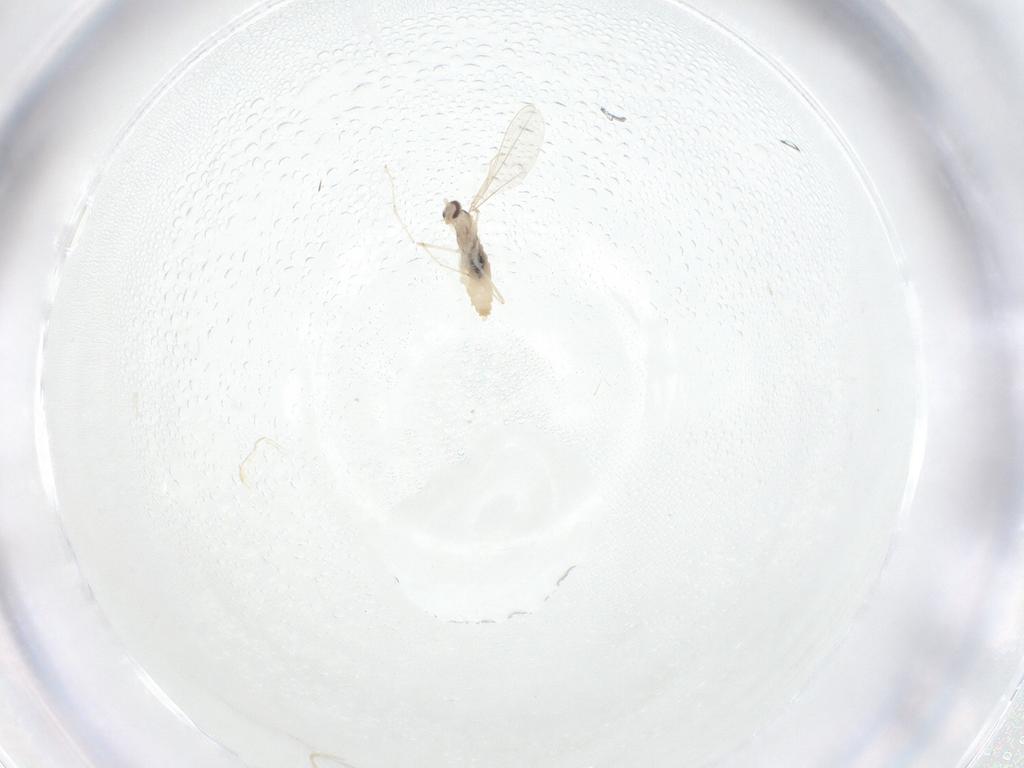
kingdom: Animalia
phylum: Arthropoda
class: Insecta
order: Diptera
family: Cecidomyiidae
